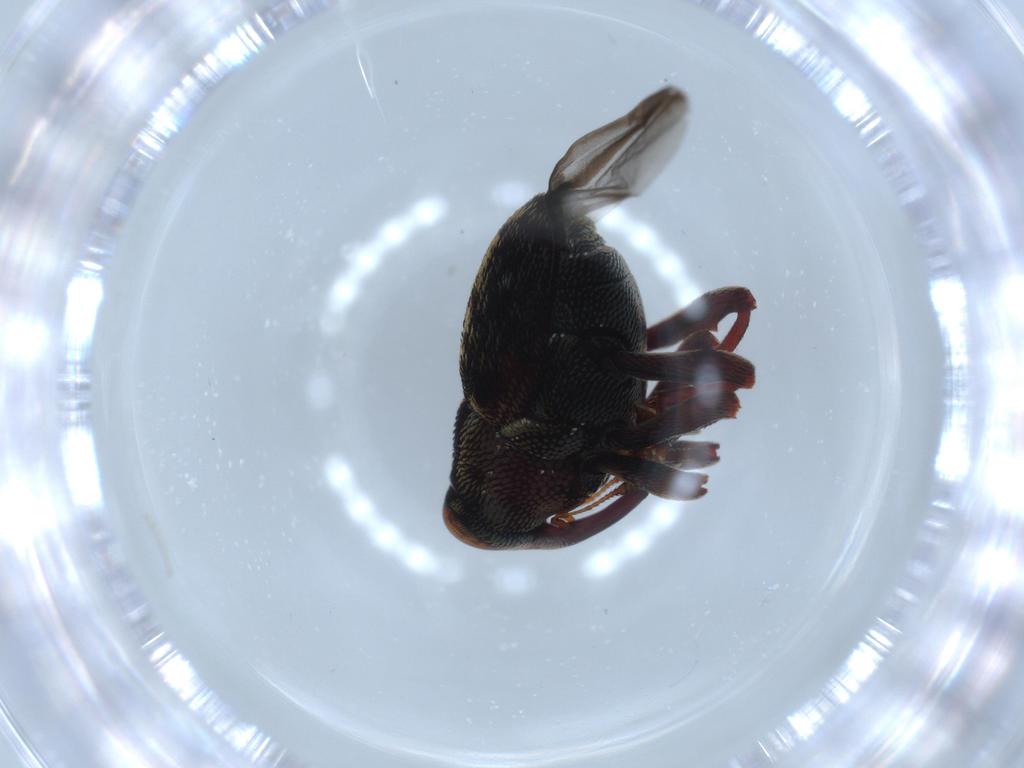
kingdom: Animalia
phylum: Arthropoda
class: Insecta
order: Coleoptera
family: Curculionidae
